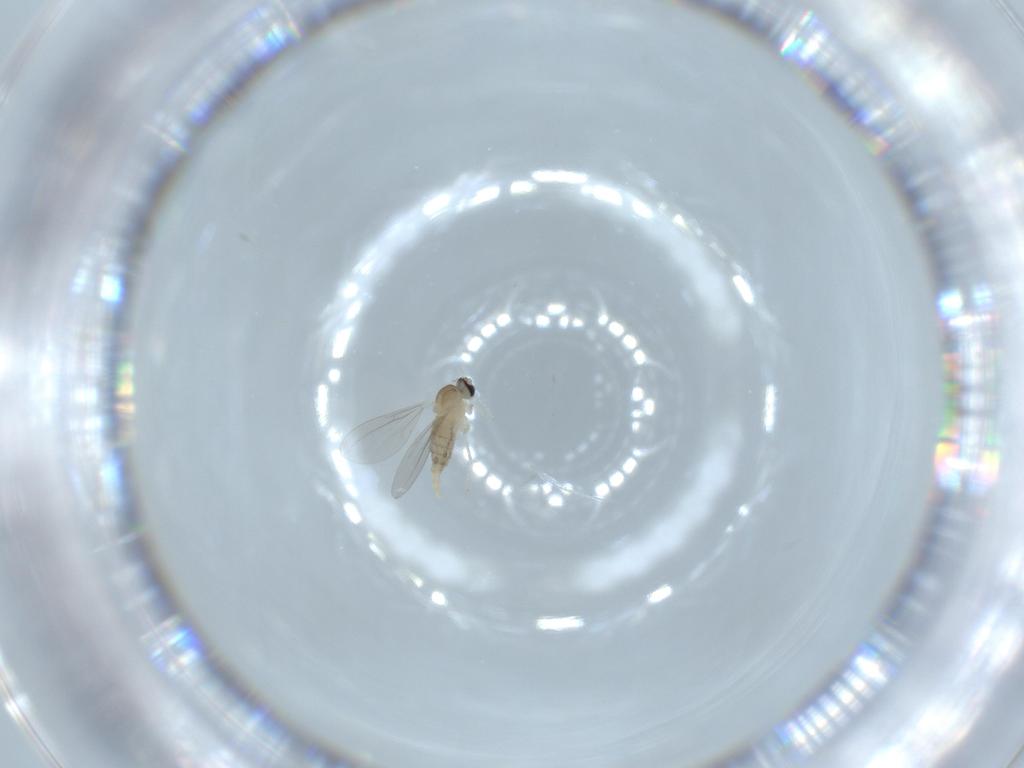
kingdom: Animalia
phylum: Arthropoda
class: Insecta
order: Diptera
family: Cecidomyiidae
